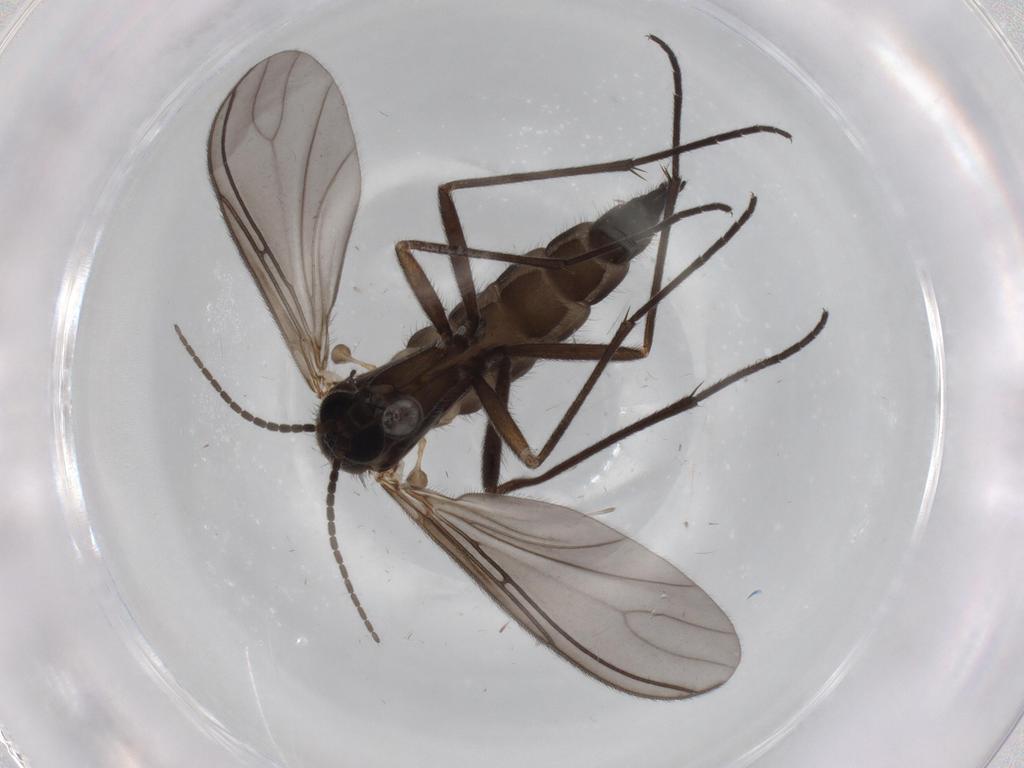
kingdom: Animalia
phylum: Arthropoda
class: Insecta
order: Diptera
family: Sciaridae
